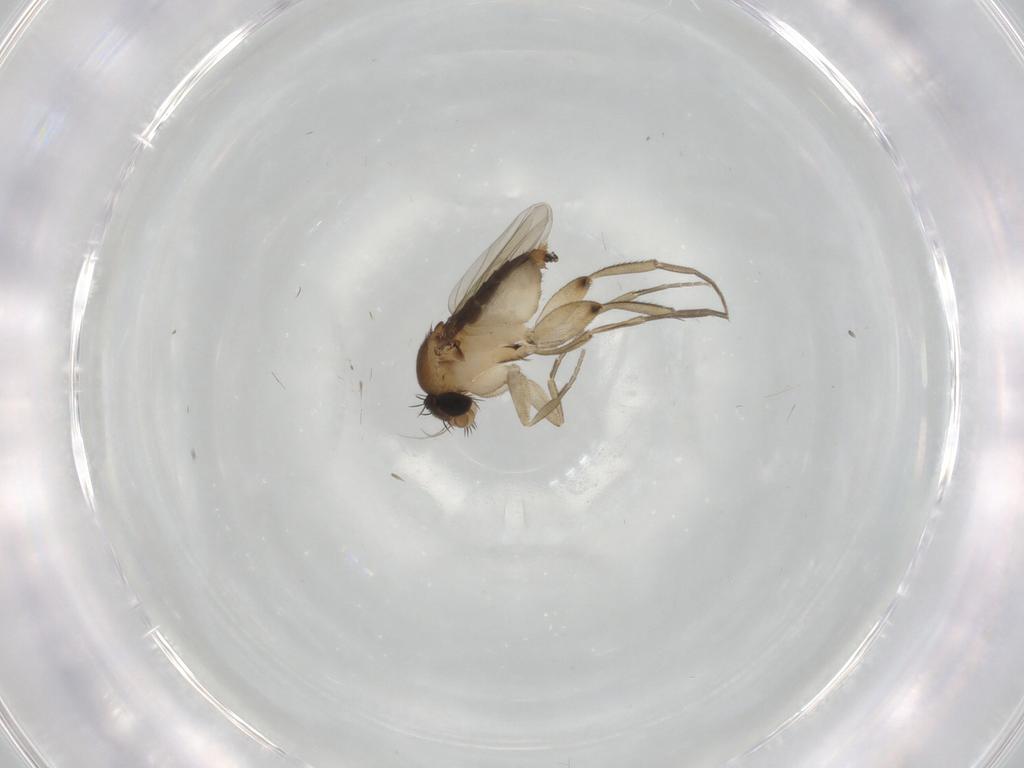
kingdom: Animalia
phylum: Arthropoda
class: Insecta
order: Diptera
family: Phoridae
